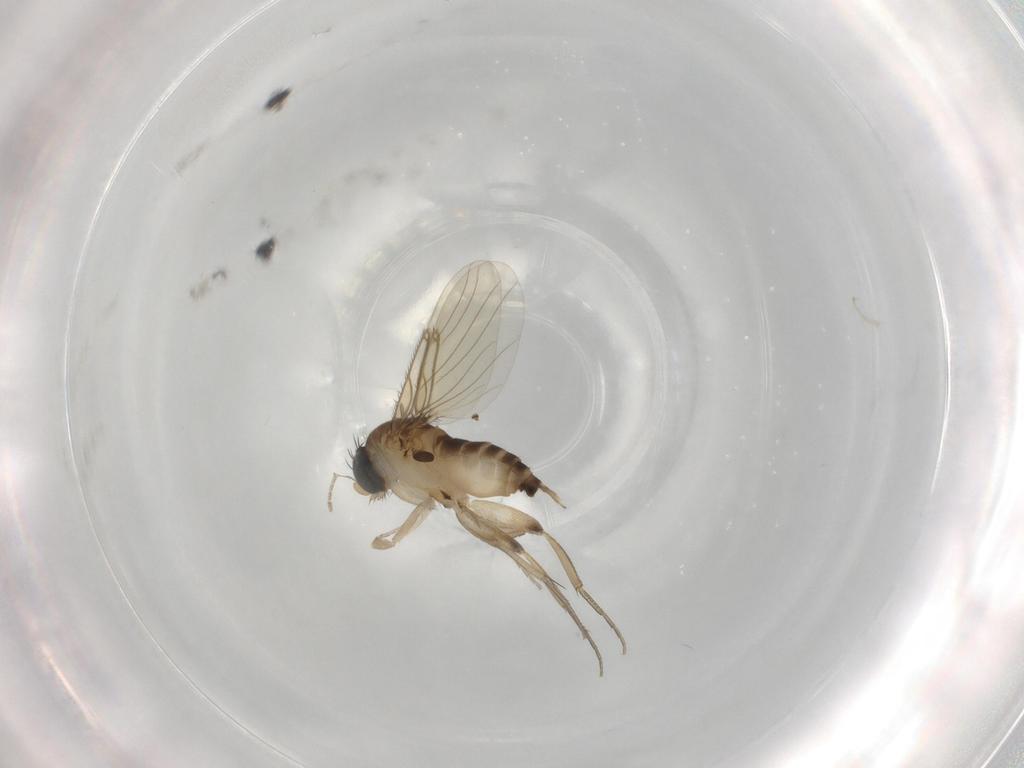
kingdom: Animalia
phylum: Arthropoda
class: Insecta
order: Diptera
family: Phoridae
